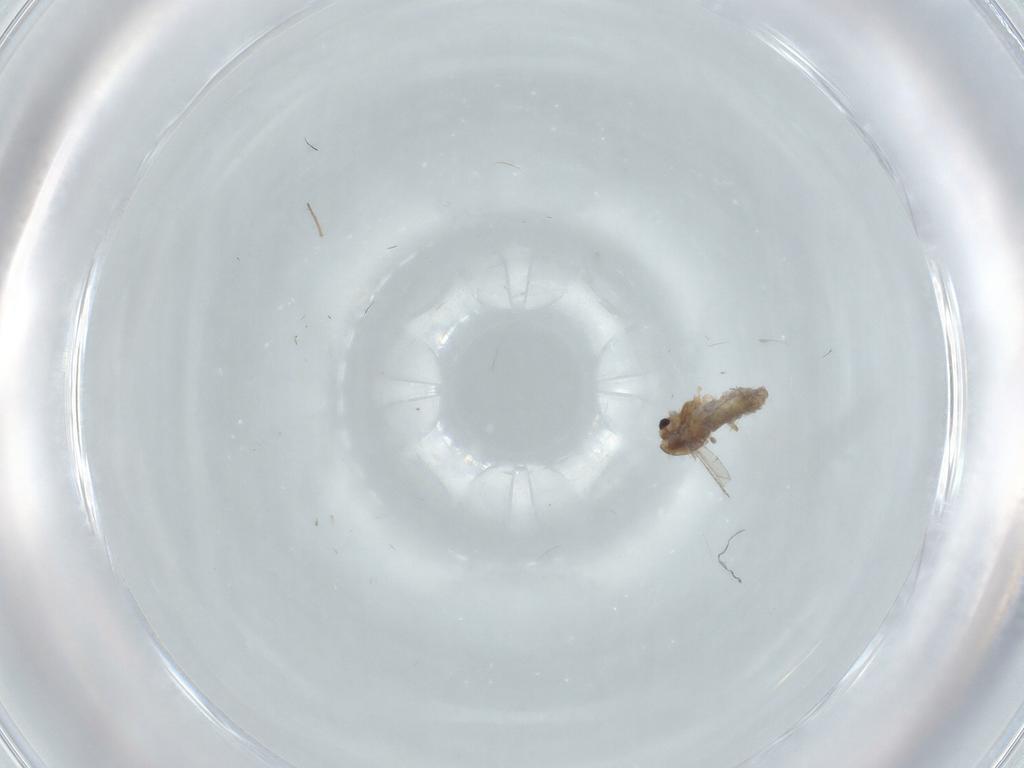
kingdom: Animalia
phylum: Arthropoda
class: Insecta
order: Diptera
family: Chironomidae
